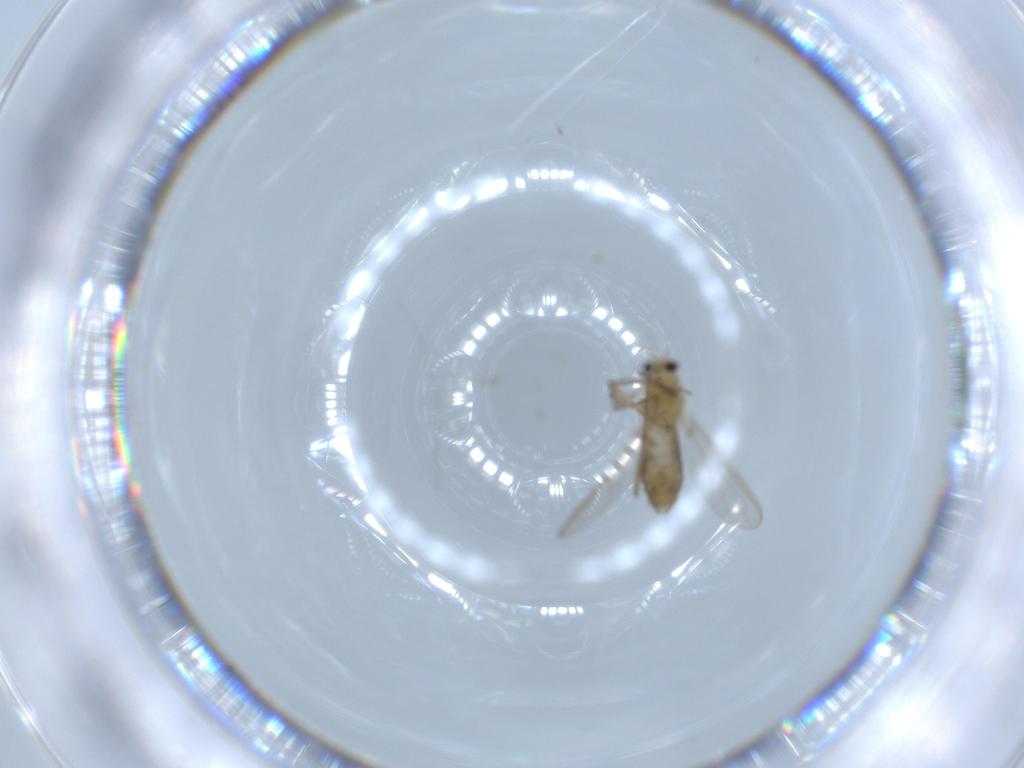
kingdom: Animalia
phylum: Arthropoda
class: Insecta
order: Diptera
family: Chironomidae
